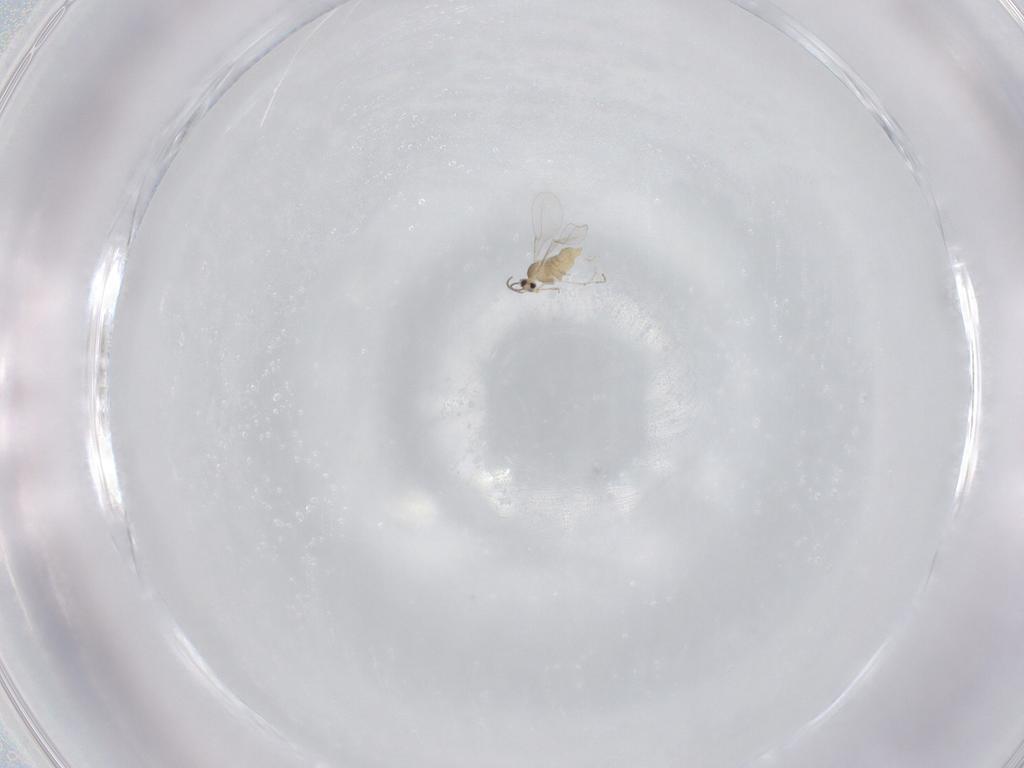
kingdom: Animalia
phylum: Arthropoda
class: Insecta
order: Diptera
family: Cecidomyiidae
